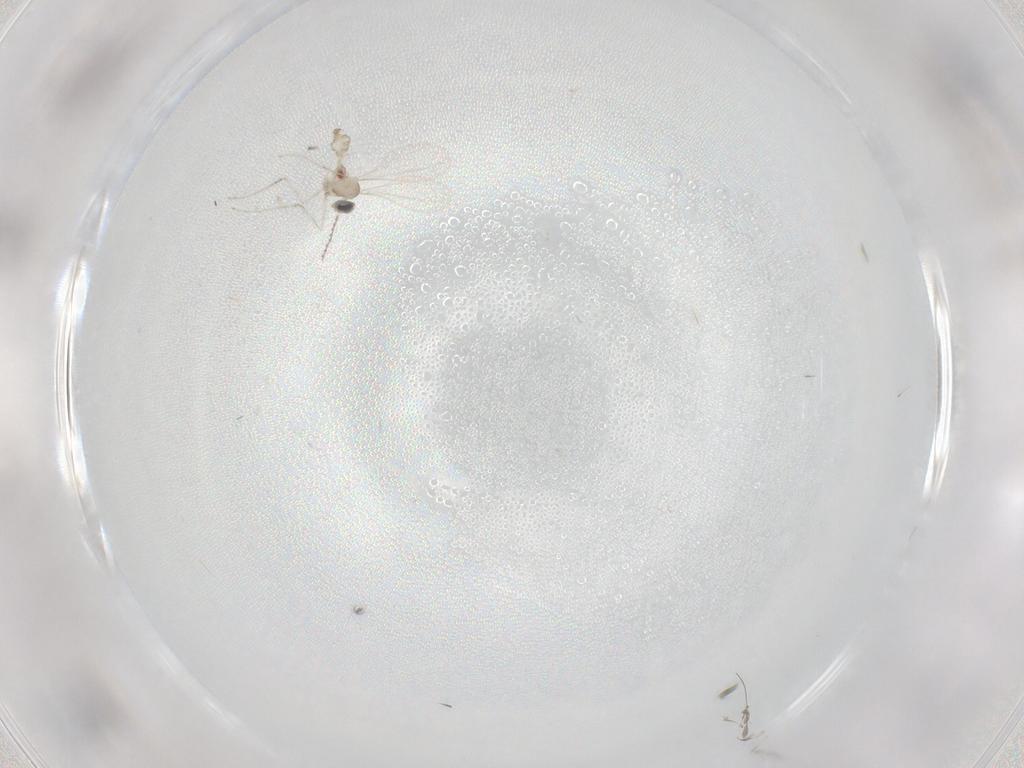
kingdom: Animalia
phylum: Arthropoda
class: Insecta
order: Diptera
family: Cecidomyiidae
